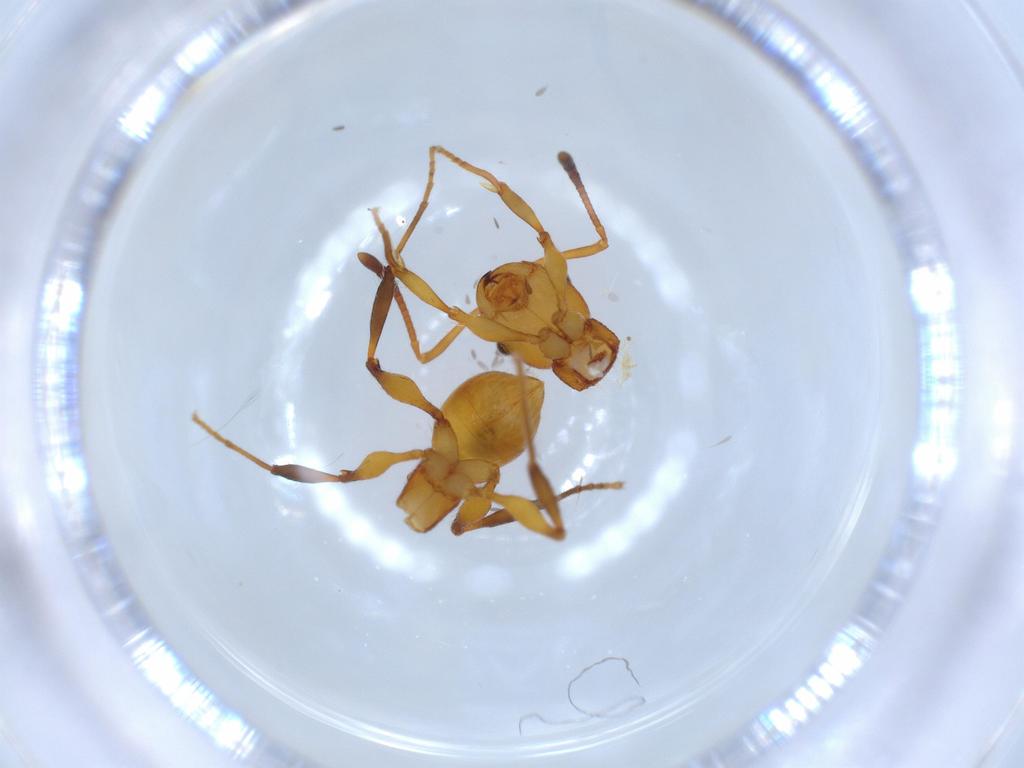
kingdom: Animalia
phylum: Arthropoda
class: Insecta
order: Hymenoptera
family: Formicidae
